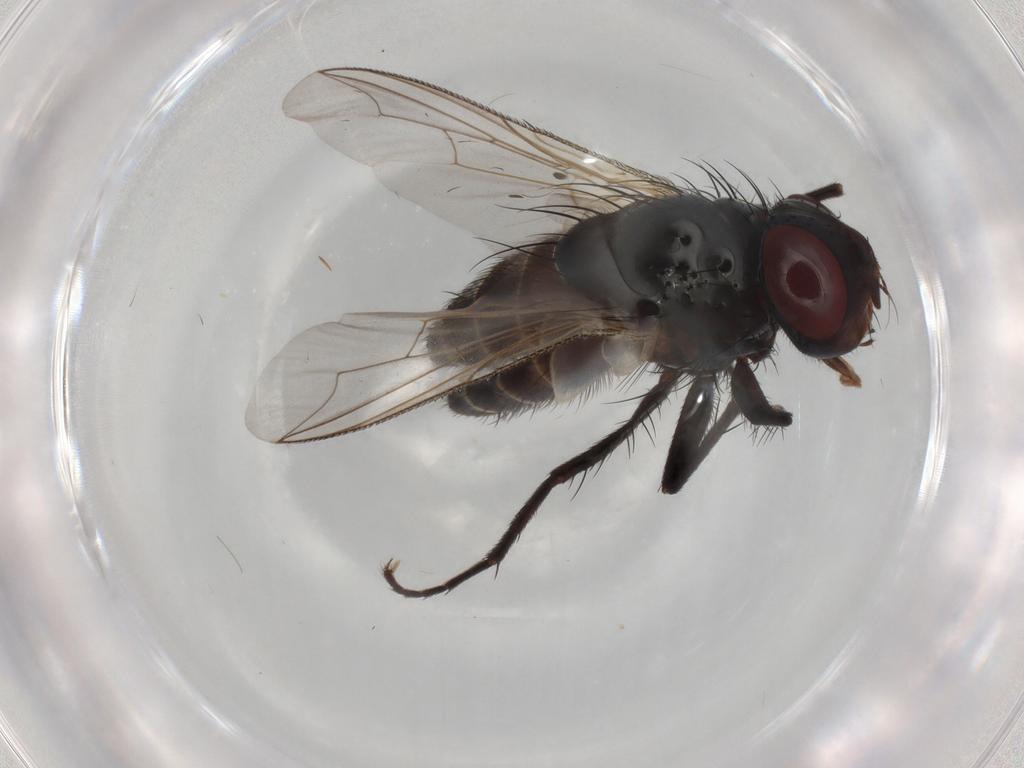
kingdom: Animalia
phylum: Arthropoda
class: Insecta
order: Diptera
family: Sarcophagidae
